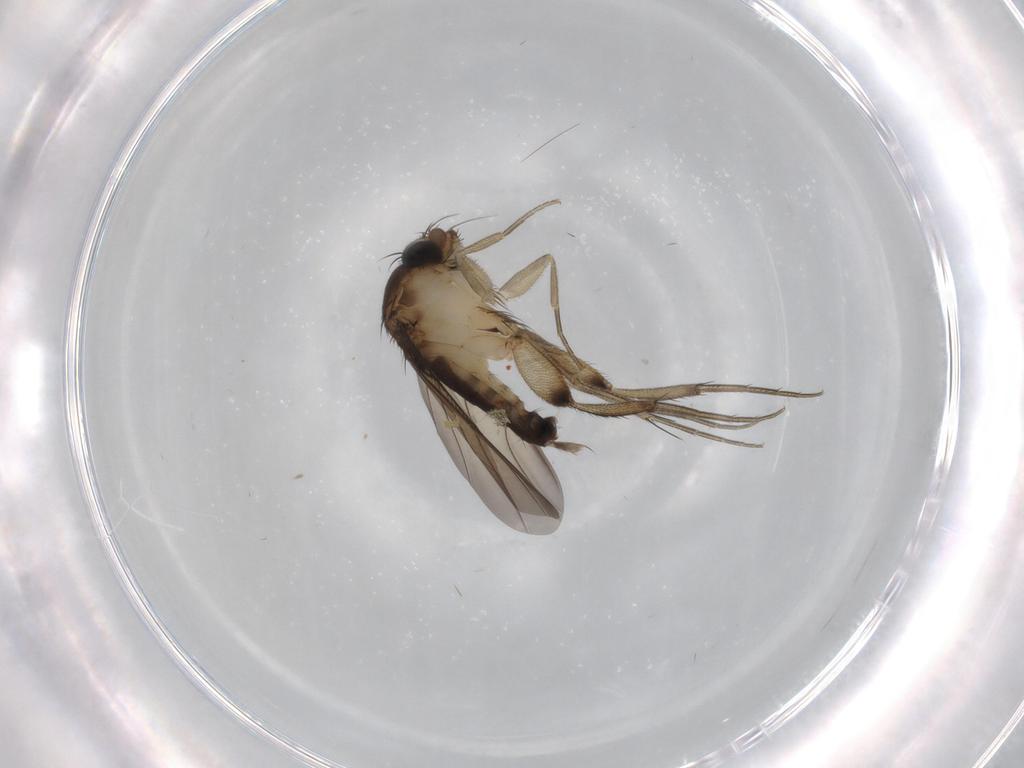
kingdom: Animalia
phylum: Arthropoda
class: Insecta
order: Diptera
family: Phoridae
